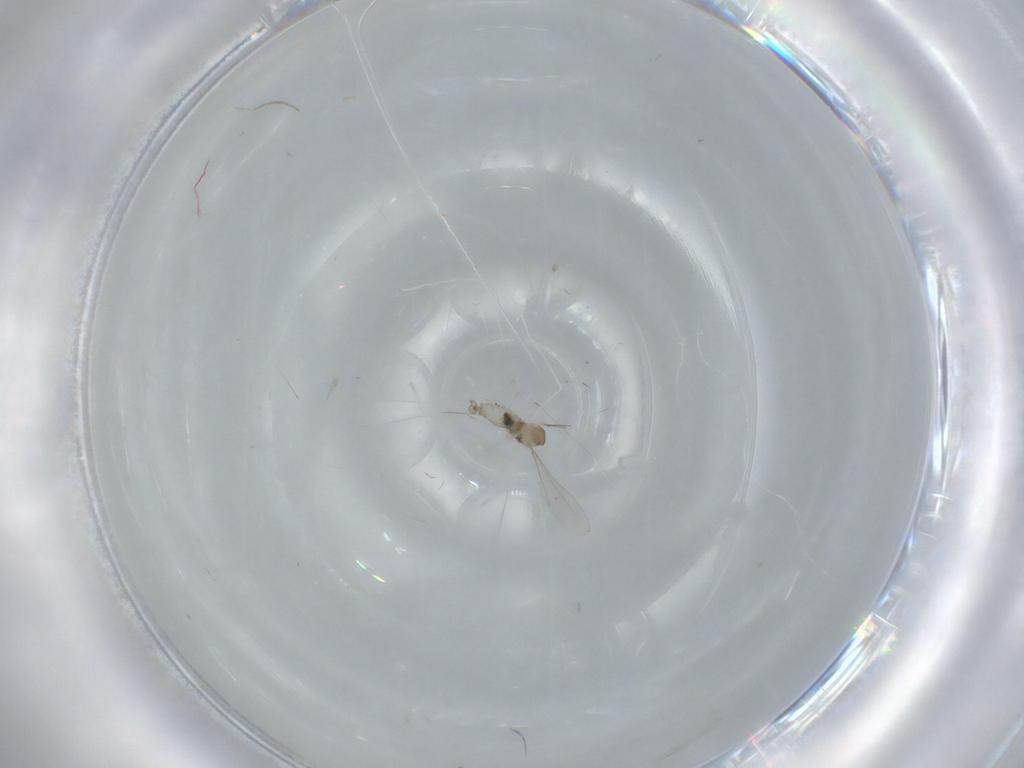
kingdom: Animalia
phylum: Arthropoda
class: Insecta
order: Diptera
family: Cecidomyiidae
